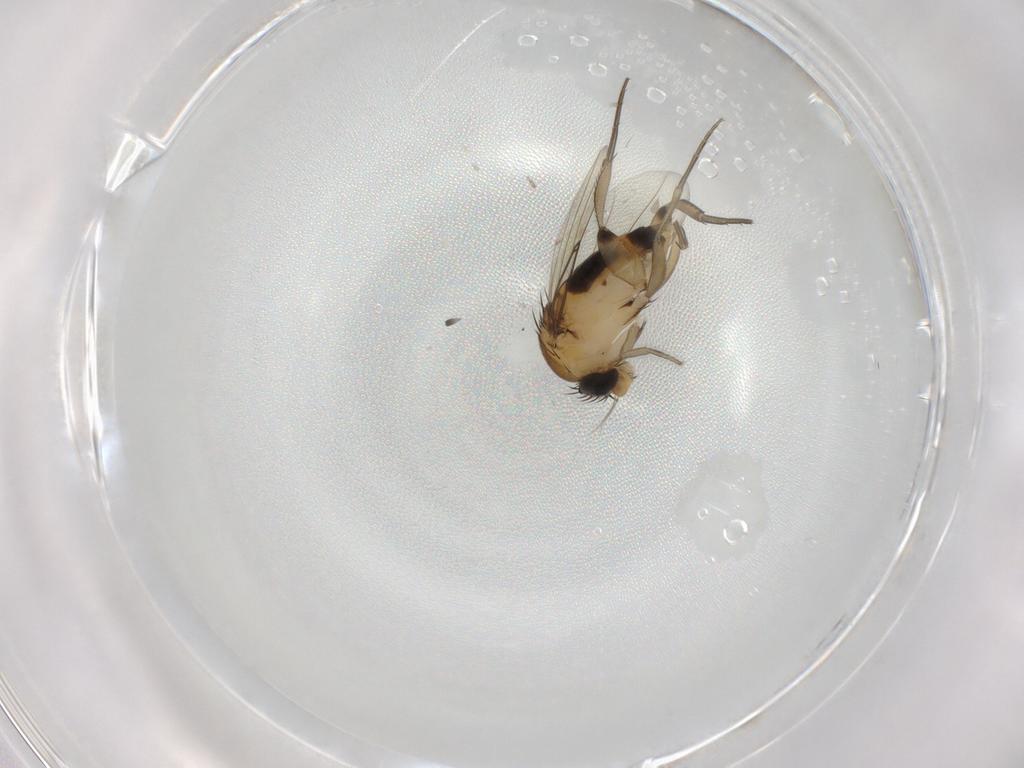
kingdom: Animalia
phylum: Arthropoda
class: Insecta
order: Diptera
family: Phoridae
